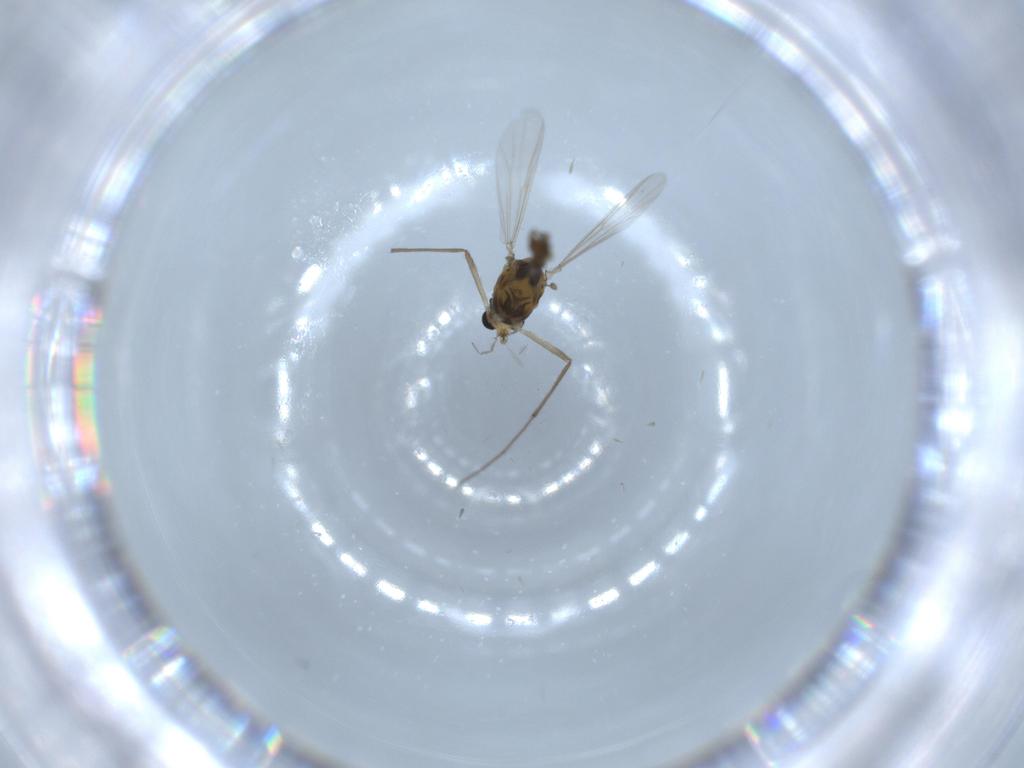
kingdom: Animalia
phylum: Arthropoda
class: Insecta
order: Diptera
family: Chironomidae
